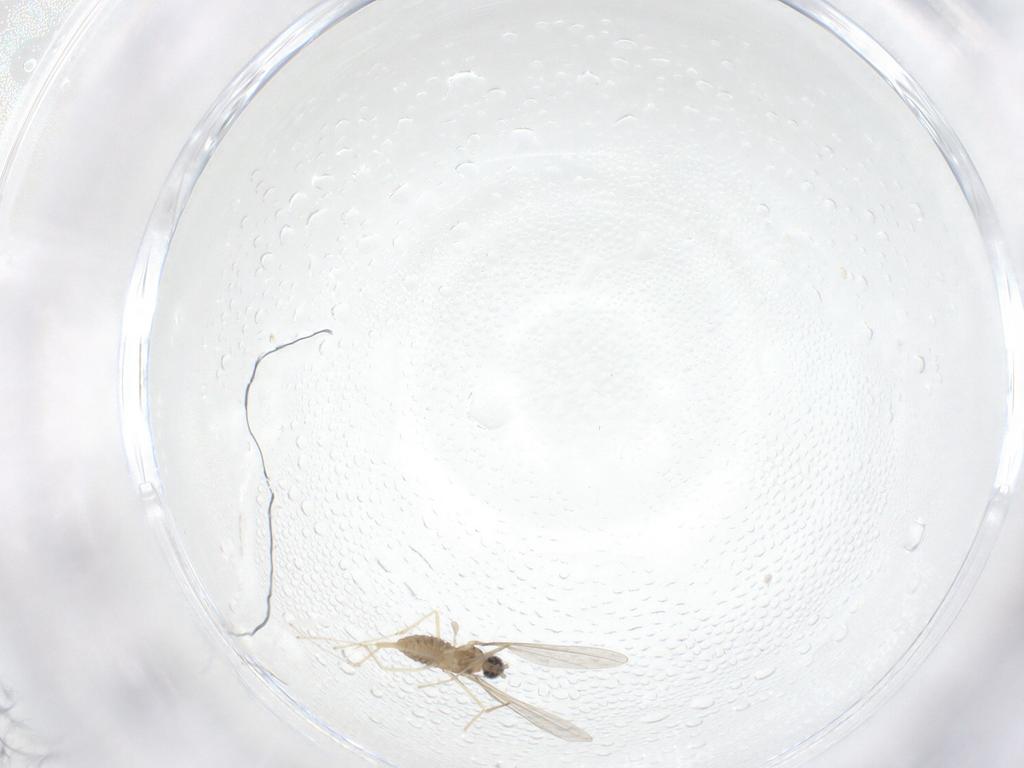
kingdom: Animalia
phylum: Arthropoda
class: Insecta
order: Diptera
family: Cecidomyiidae
